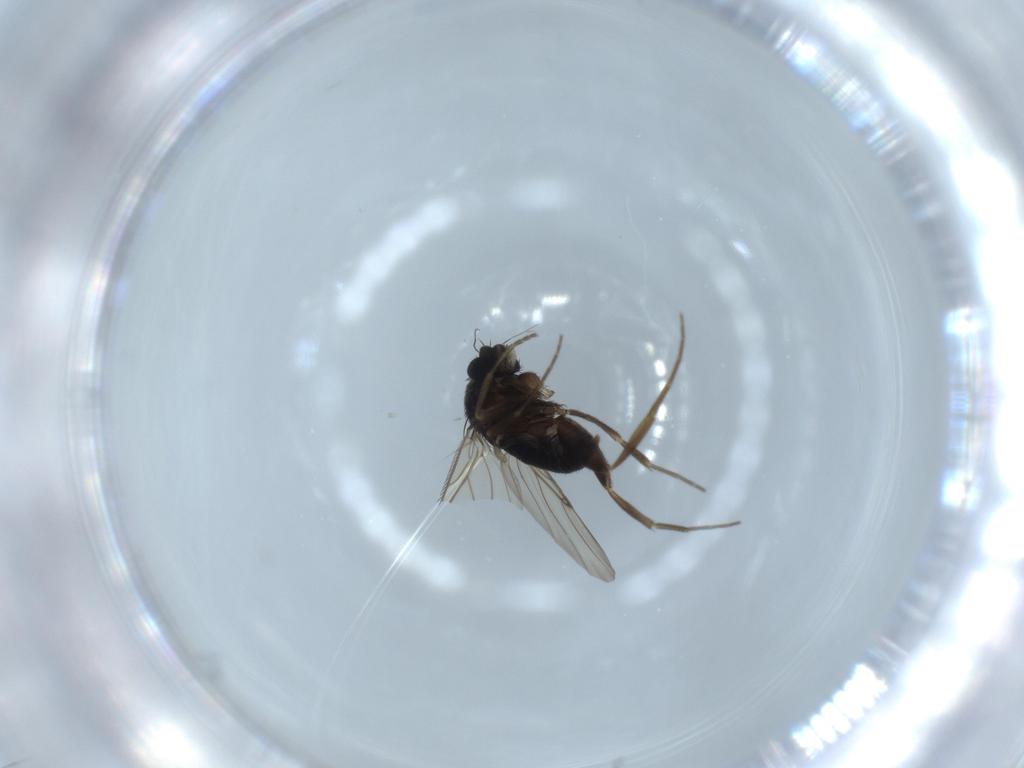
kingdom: Animalia
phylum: Arthropoda
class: Insecta
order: Diptera
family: Phoridae
